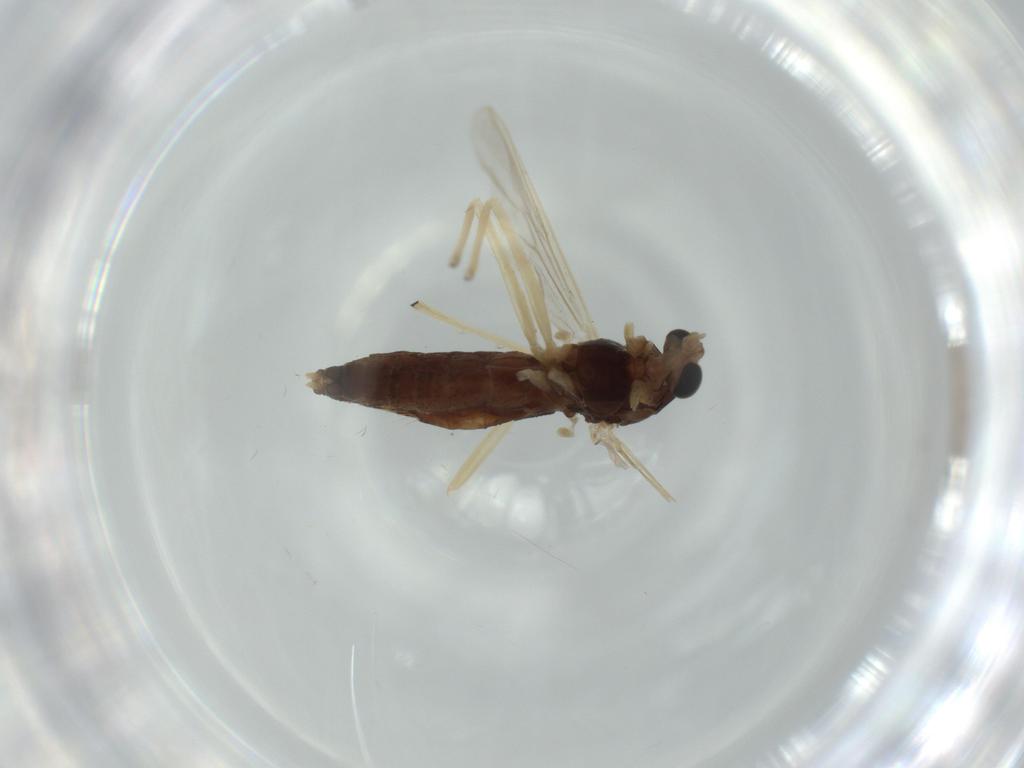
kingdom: Animalia
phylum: Arthropoda
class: Insecta
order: Diptera
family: Chironomidae
